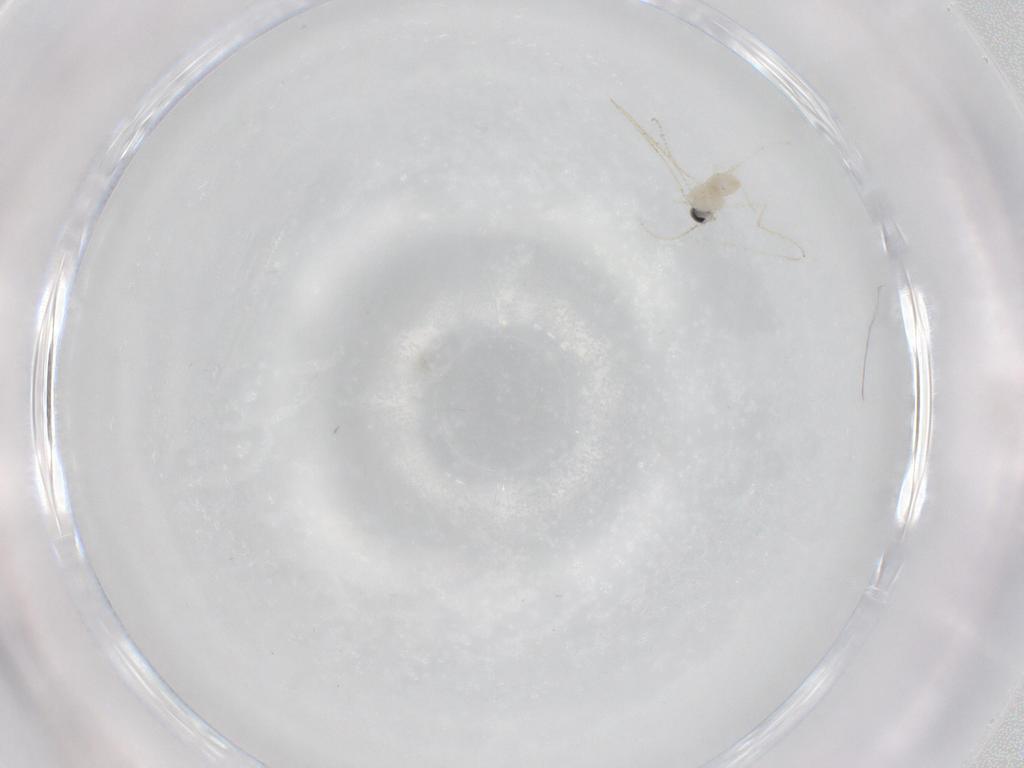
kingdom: Animalia
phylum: Arthropoda
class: Insecta
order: Diptera
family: Cecidomyiidae
